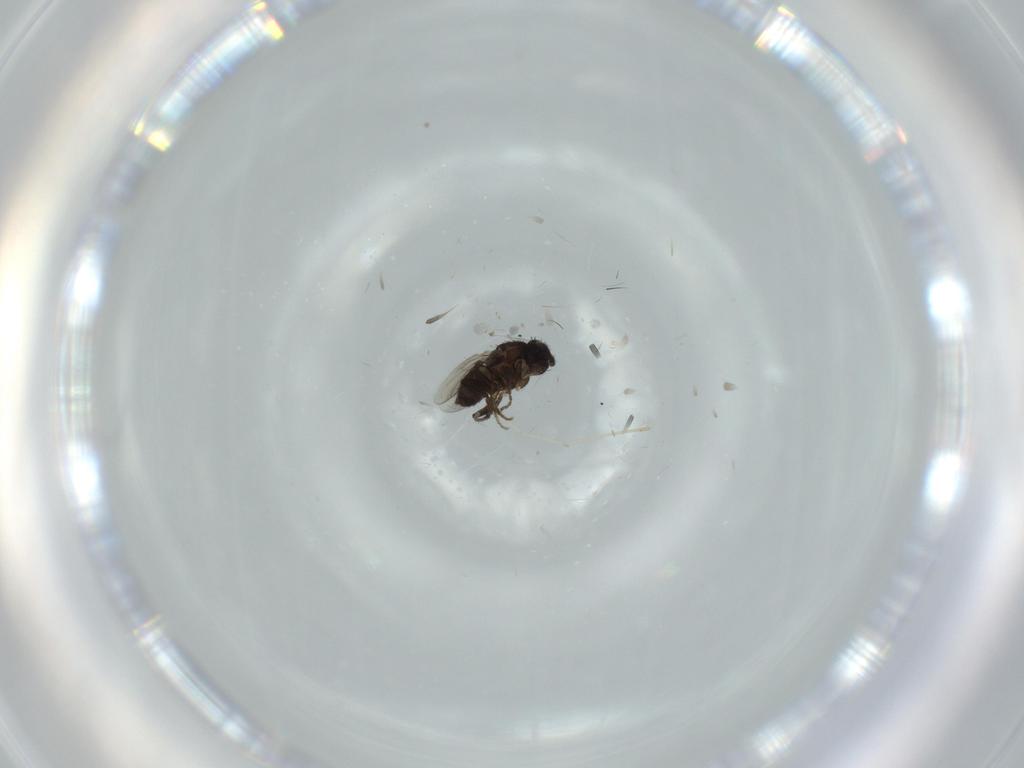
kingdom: Animalia
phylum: Arthropoda
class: Insecta
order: Diptera
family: Cecidomyiidae
